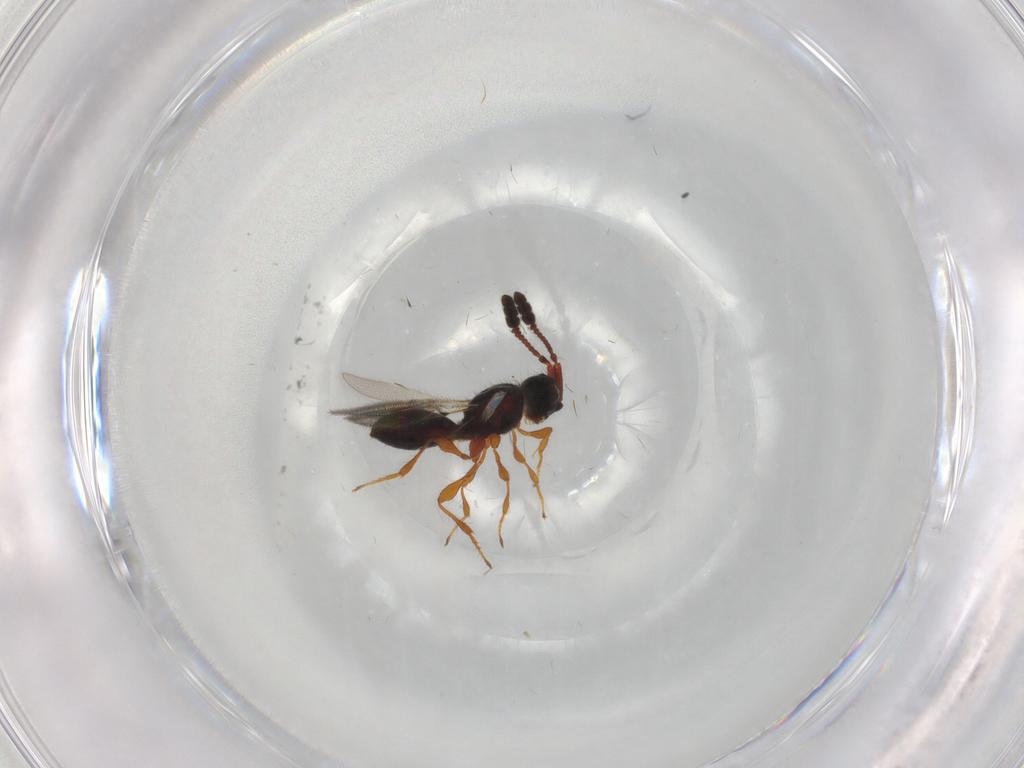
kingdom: Animalia
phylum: Arthropoda
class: Insecta
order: Hymenoptera
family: Diapriidae
